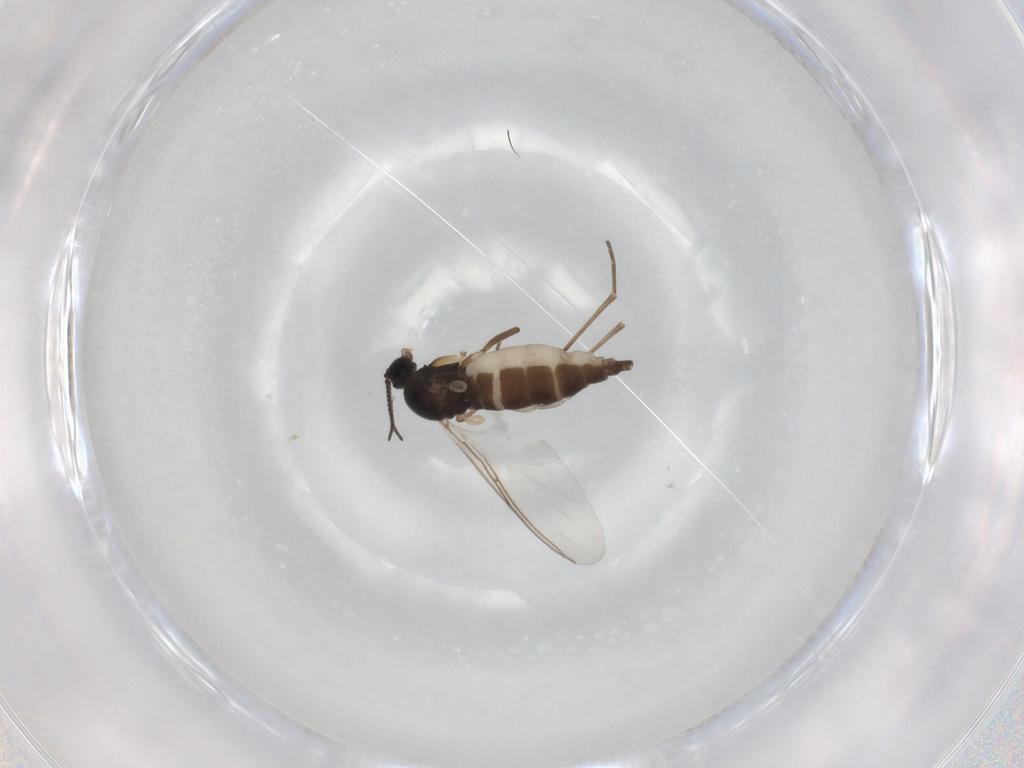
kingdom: Animalia
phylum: Arthropoda
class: Insecta
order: Diptera
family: Sciaridae
